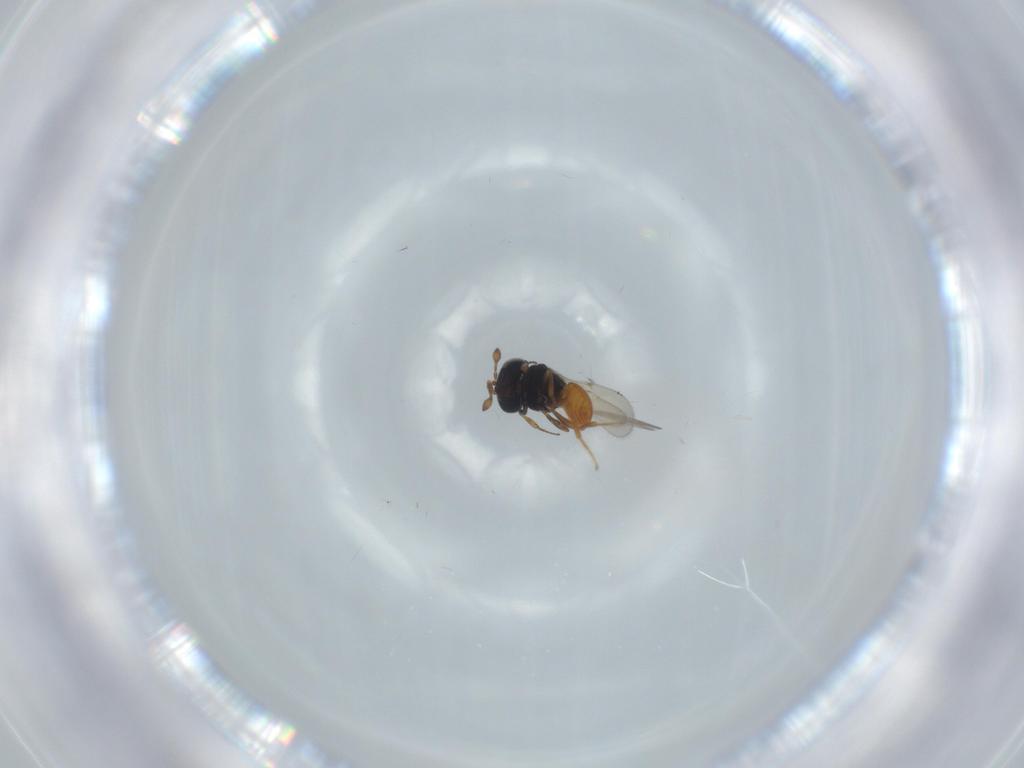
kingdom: Animalia
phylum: Arthropoda
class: Insecta
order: Hymenoptera
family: Scelionidae
